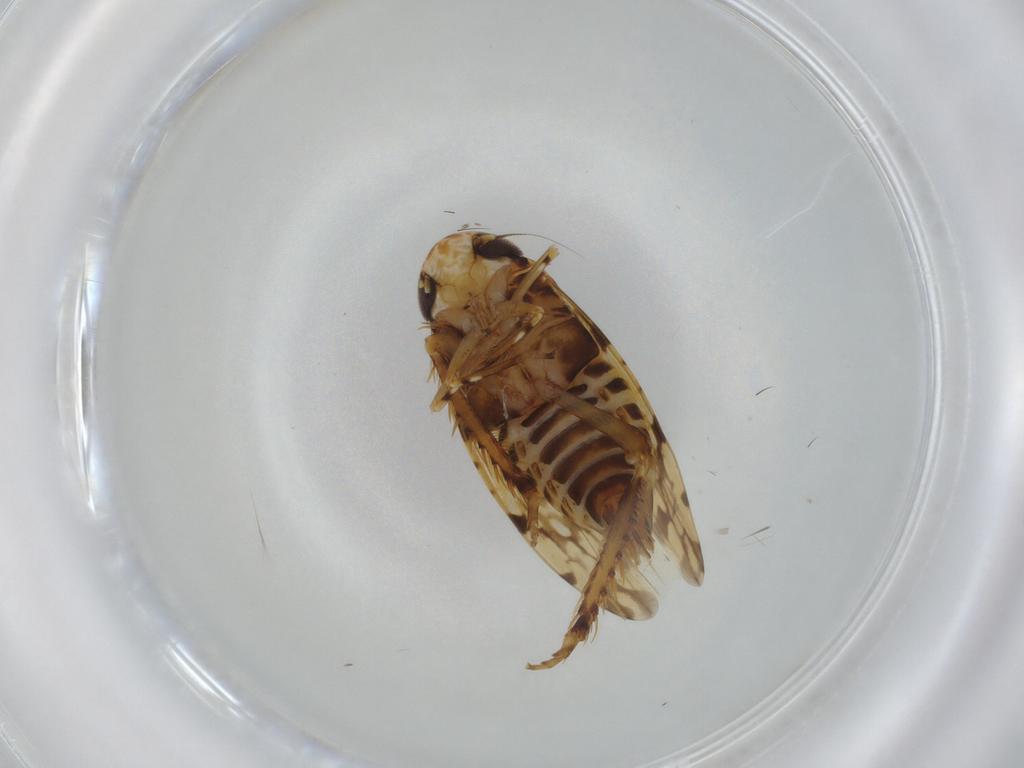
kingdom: Animalia
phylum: Arthropoda
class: Insecta
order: Hemiptera
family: Cicadellidae
